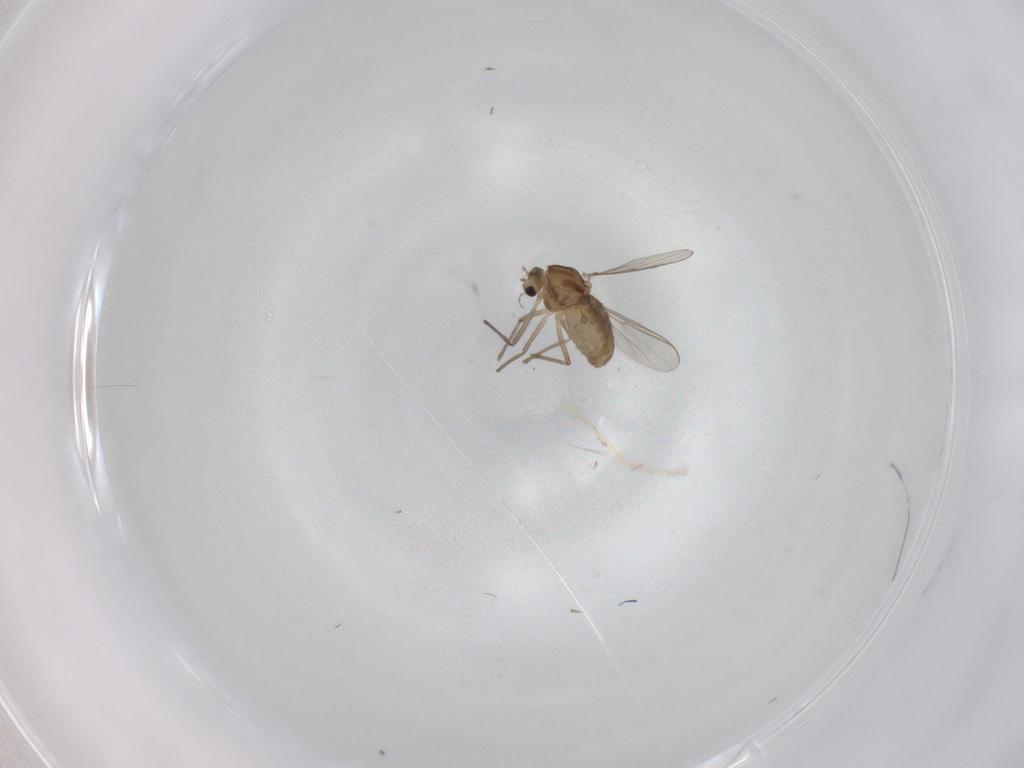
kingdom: Animalia
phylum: Arthropoda
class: Insecta
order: Diptera
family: Chironomidae
